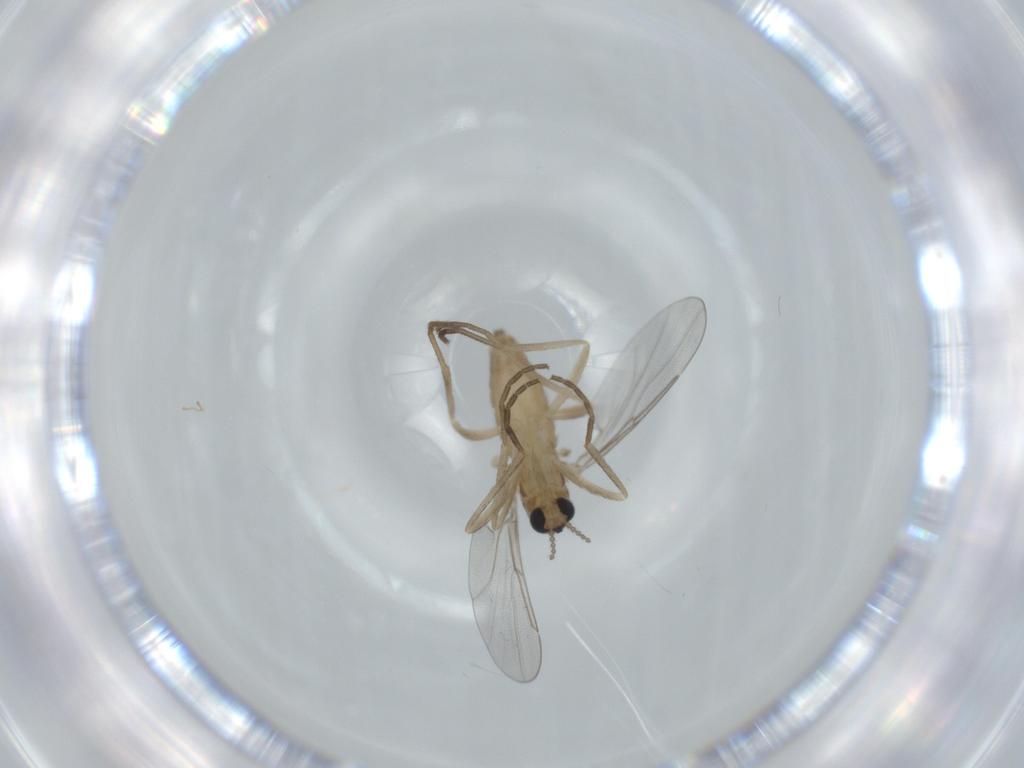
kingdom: Animalia
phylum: Arthropoda
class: Insecta
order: Diptera
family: Cecidomyiidae
